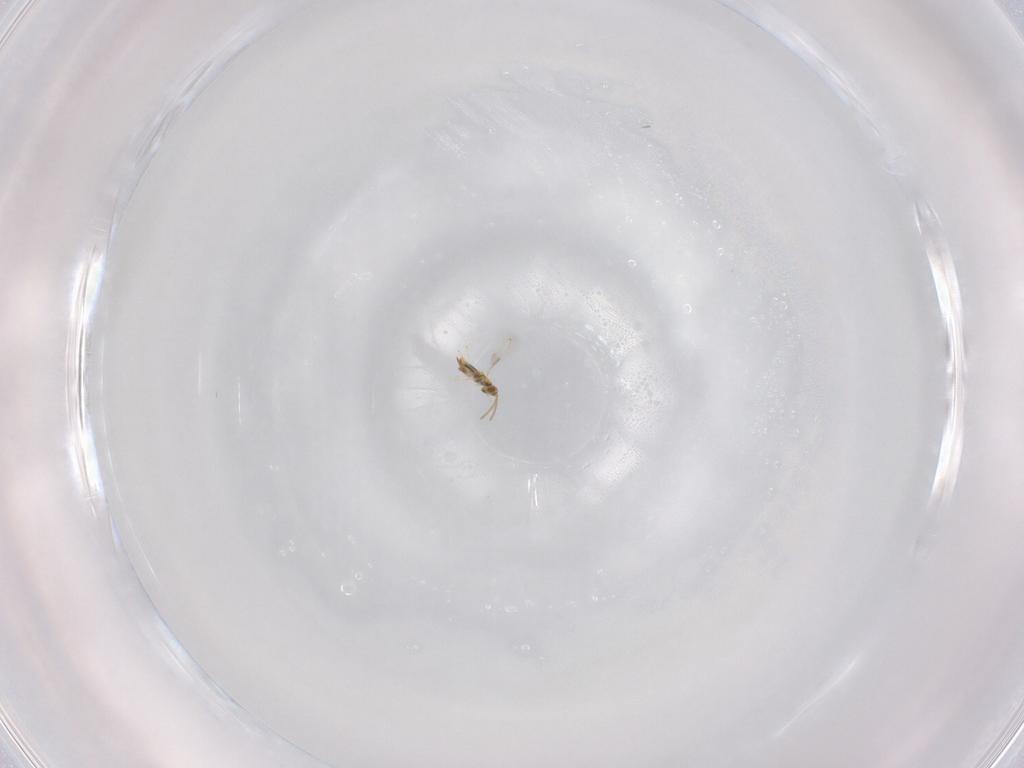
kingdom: Animalia
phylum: Arthropoda
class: Insecta
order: Hymenoptera
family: Aphelinidae
